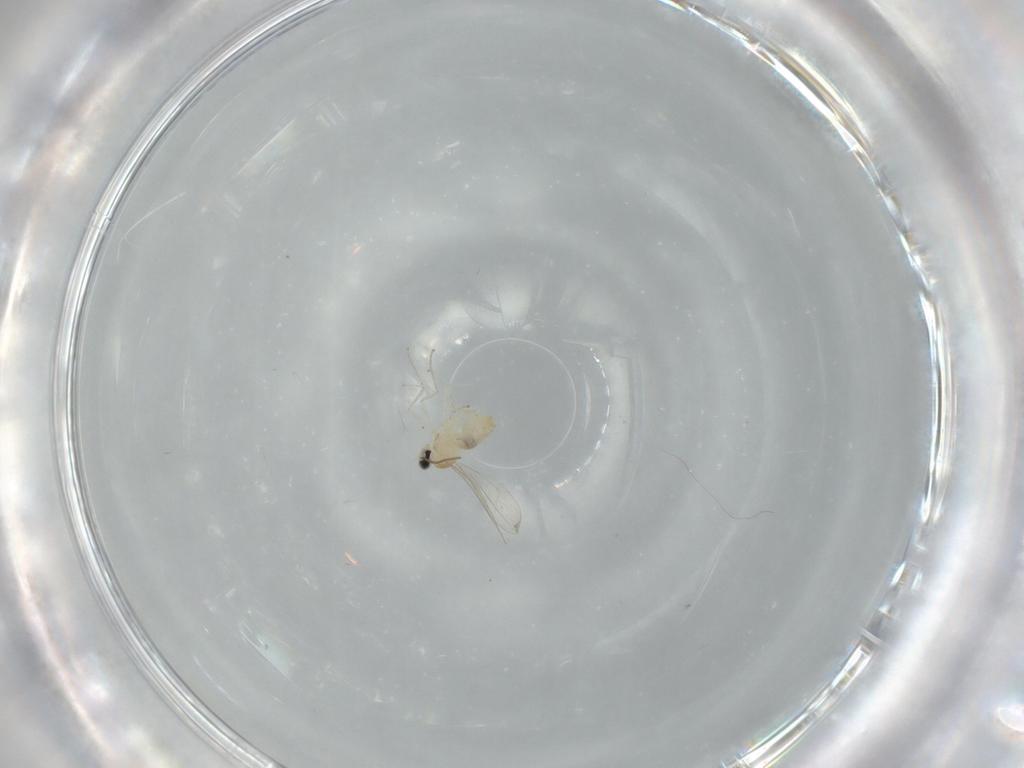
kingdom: Animalia
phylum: Arthropoda
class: Insecta
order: Diptera
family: Cecidomyiidae
